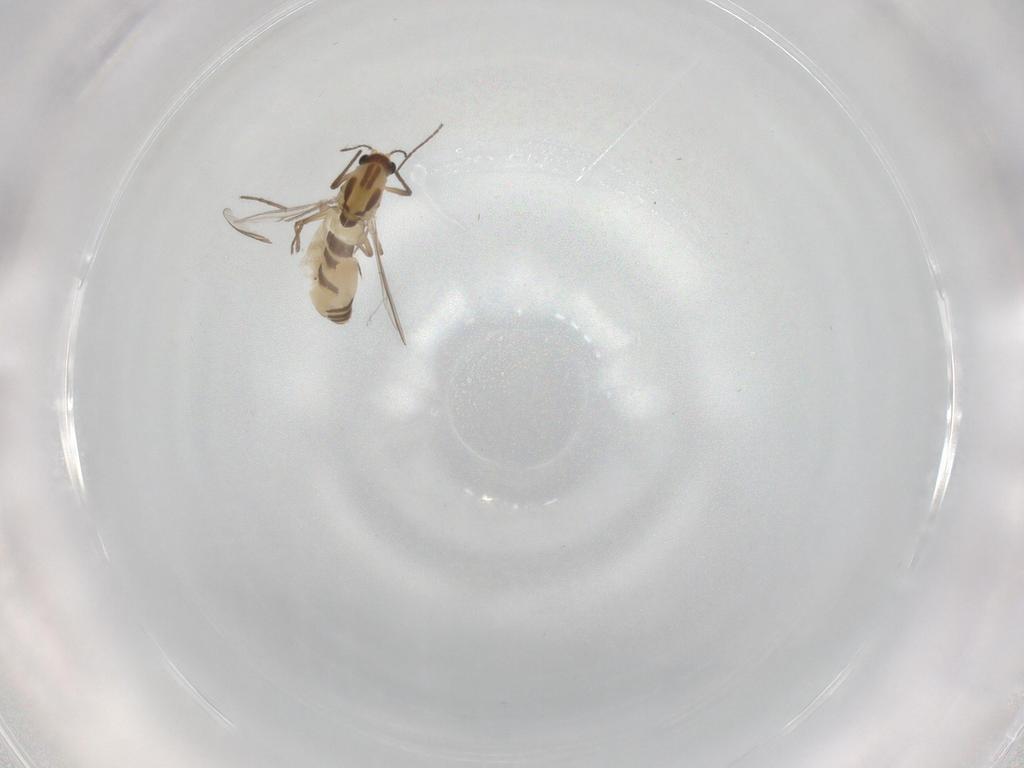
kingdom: Animalia
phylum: Arthropoda
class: Insecta
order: Diptera
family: Chironomidae
